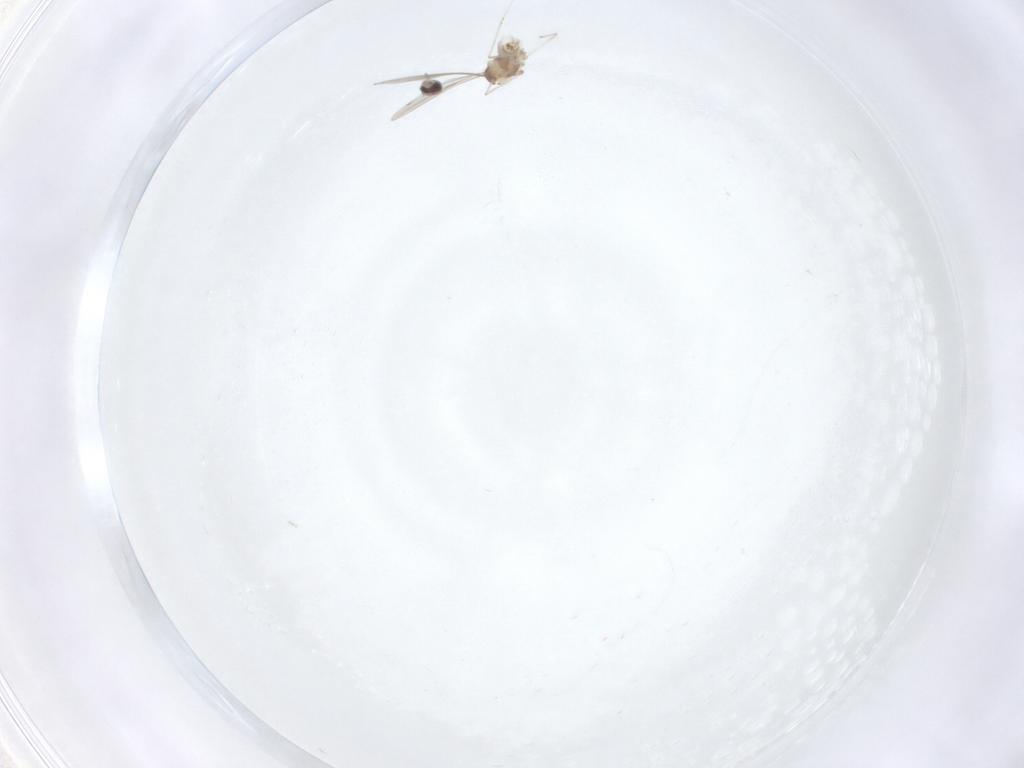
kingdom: Animalia
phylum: Arthropoda
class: Insecta
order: Diptera
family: Cecidomyiidae
